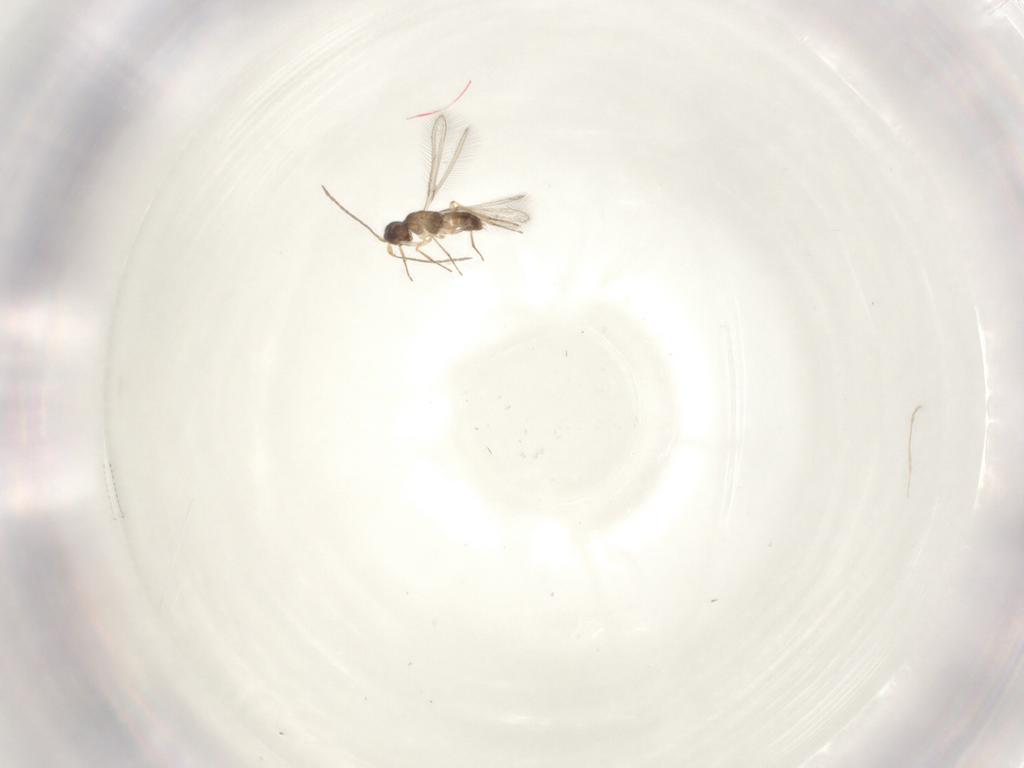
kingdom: Animalia
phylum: Arthropoda
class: Insecta
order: Hymenoptera
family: Mymaridae
